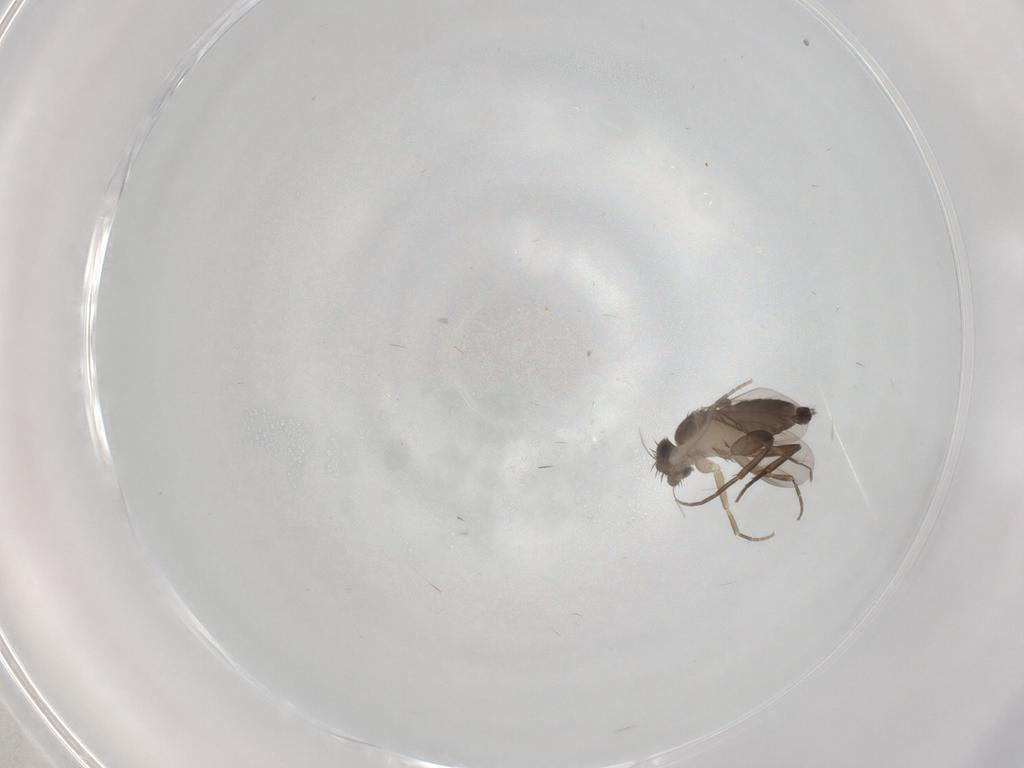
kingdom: Animalia
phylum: Arthropoda
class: Insecta
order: Diptera
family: Phoridae
